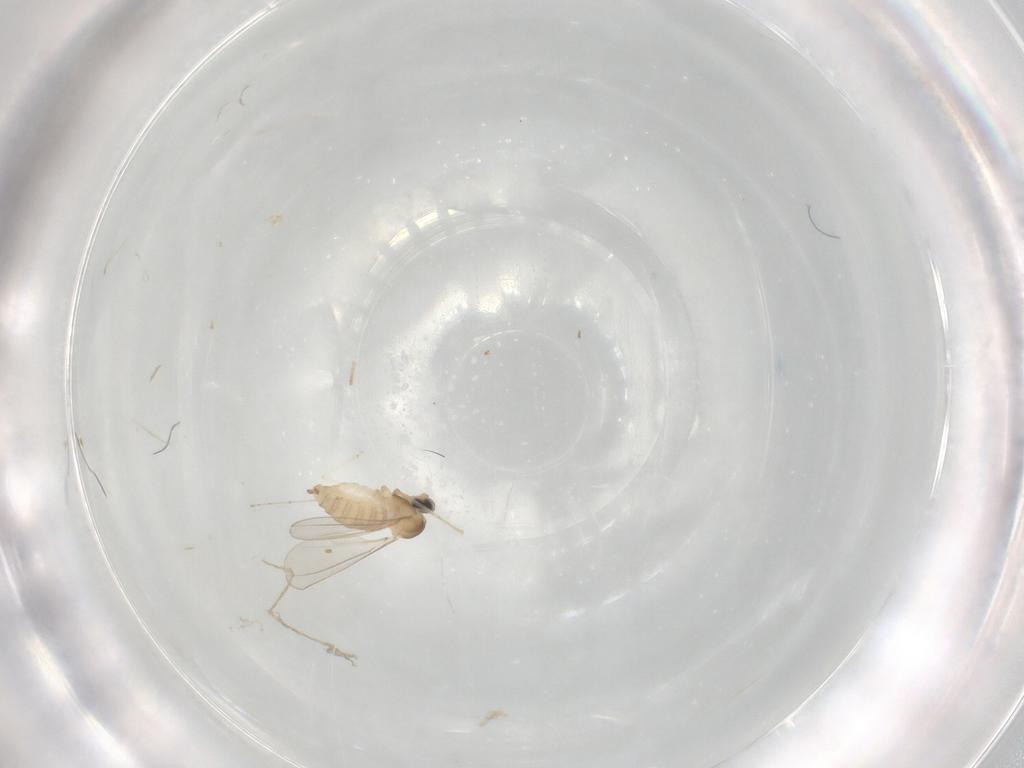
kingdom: Animalia
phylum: Arthropoda
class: Insecta
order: Diptera
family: Cecidomyiidae
